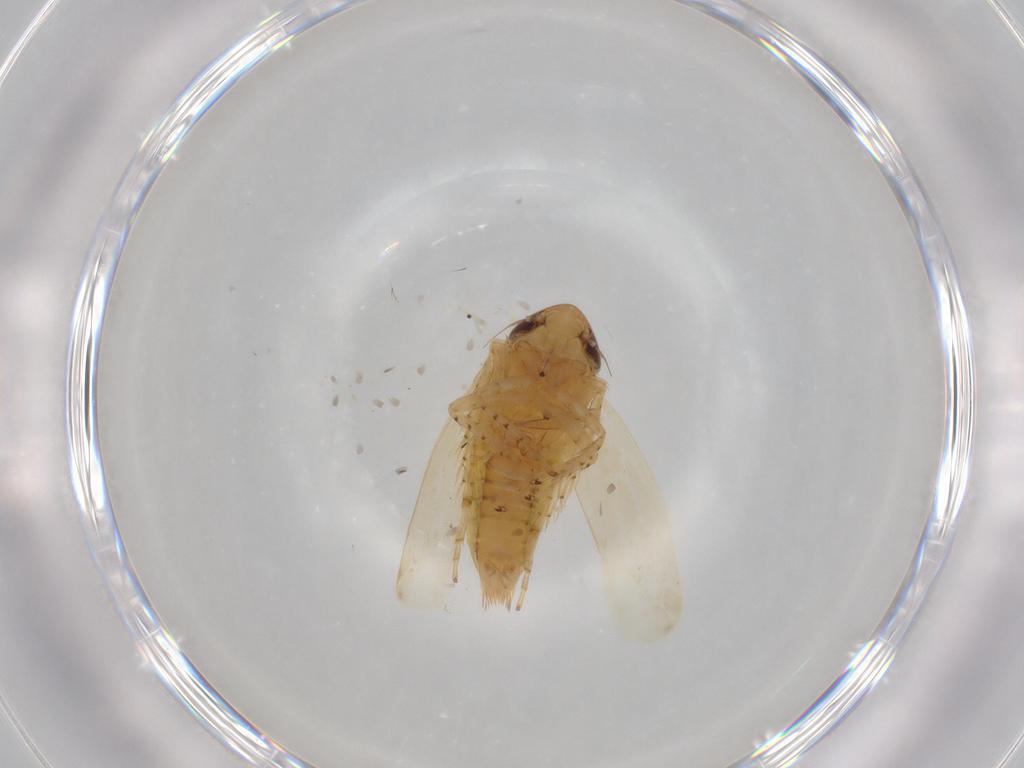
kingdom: Animalia
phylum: Arthropoda
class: Insecta
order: Hemiptera
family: Cicadellidae
